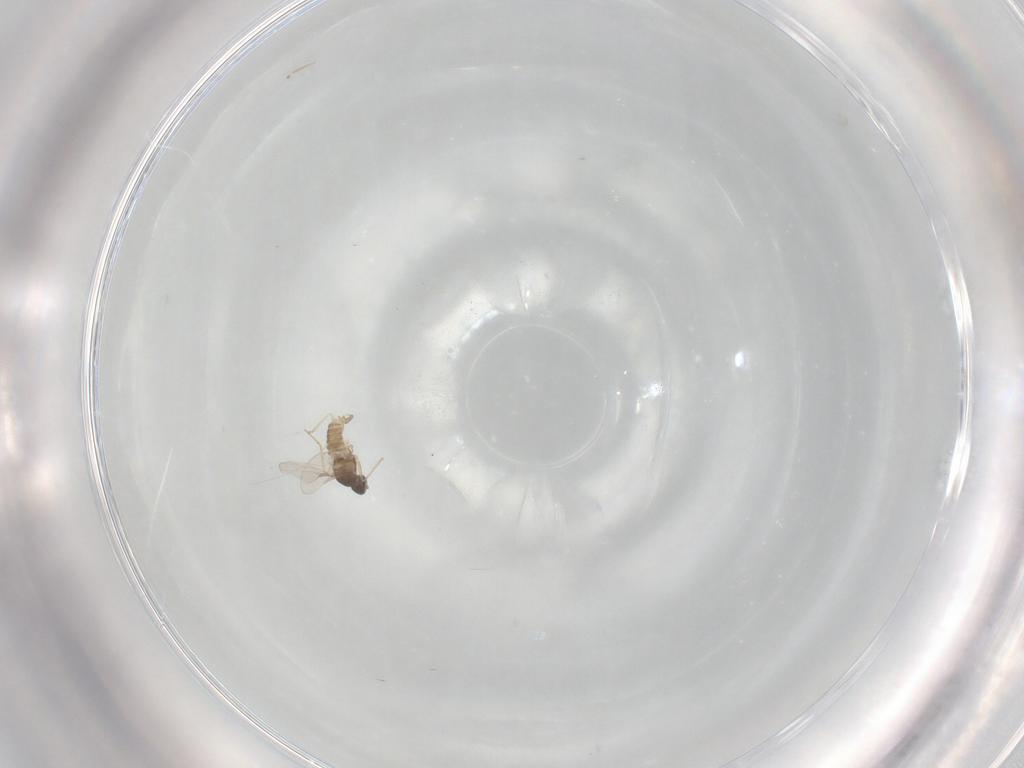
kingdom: Animalia
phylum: Arthropoda
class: Insecta
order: Diptera
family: Cecidomyiidae
